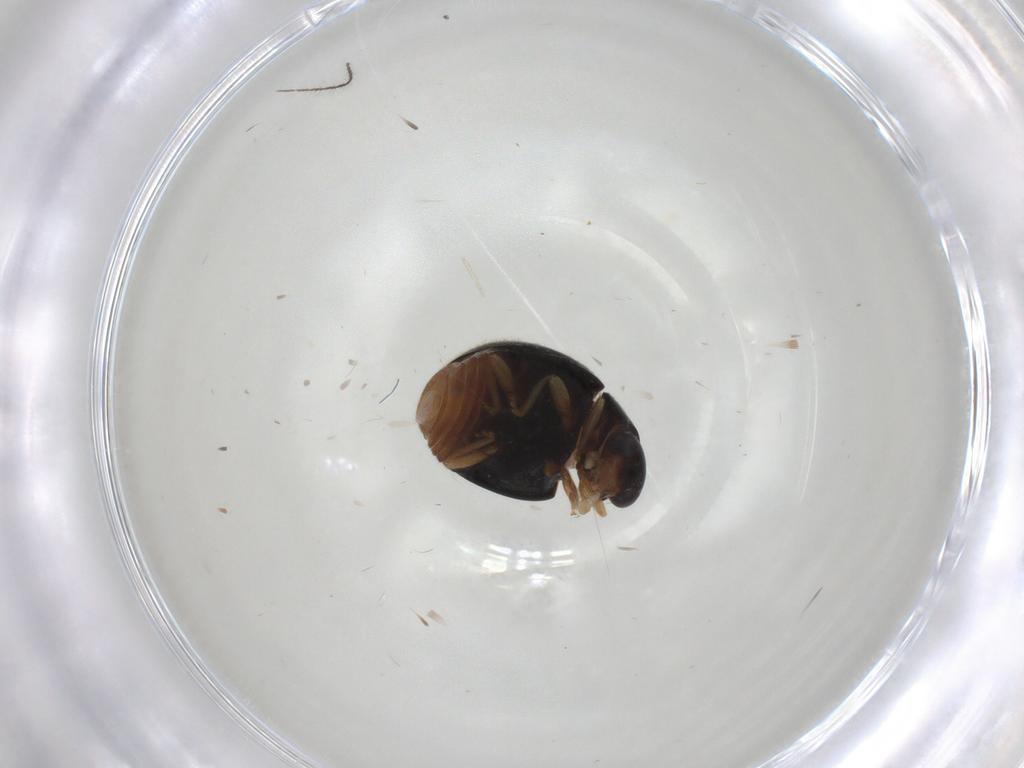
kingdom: Animalia
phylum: Arthropoda
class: Insecta
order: Coleoptera
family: Coccinellidae
